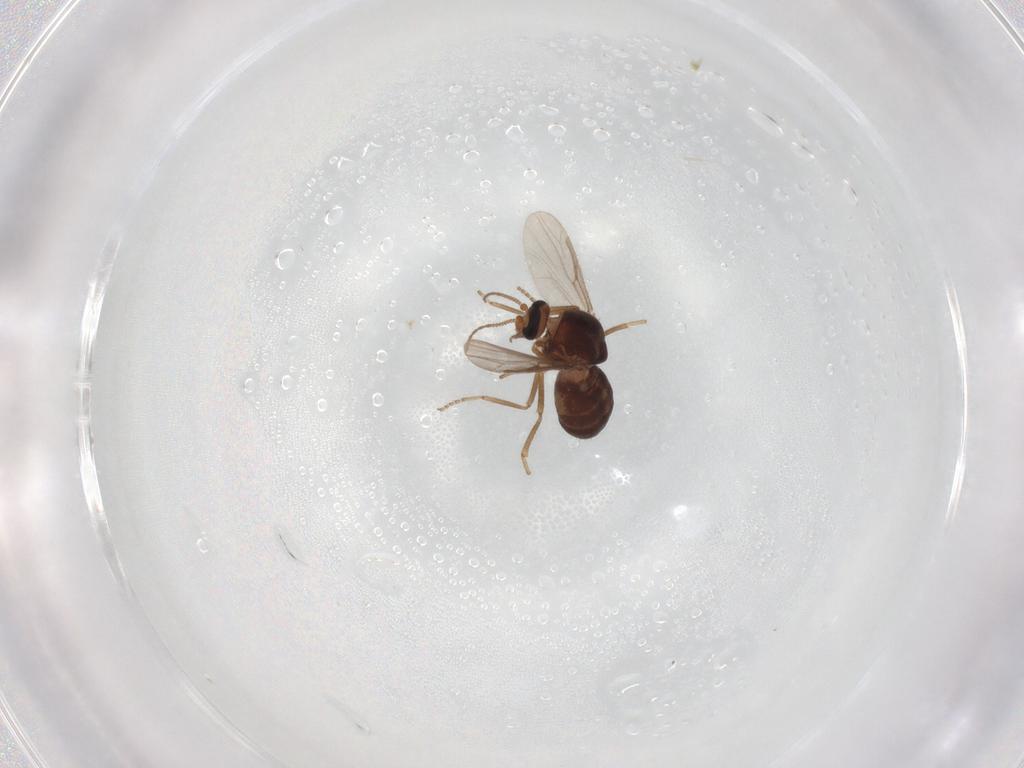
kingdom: Animalia
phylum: Arthropoda
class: Insecta
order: Diptera
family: Ceratopogonidae
